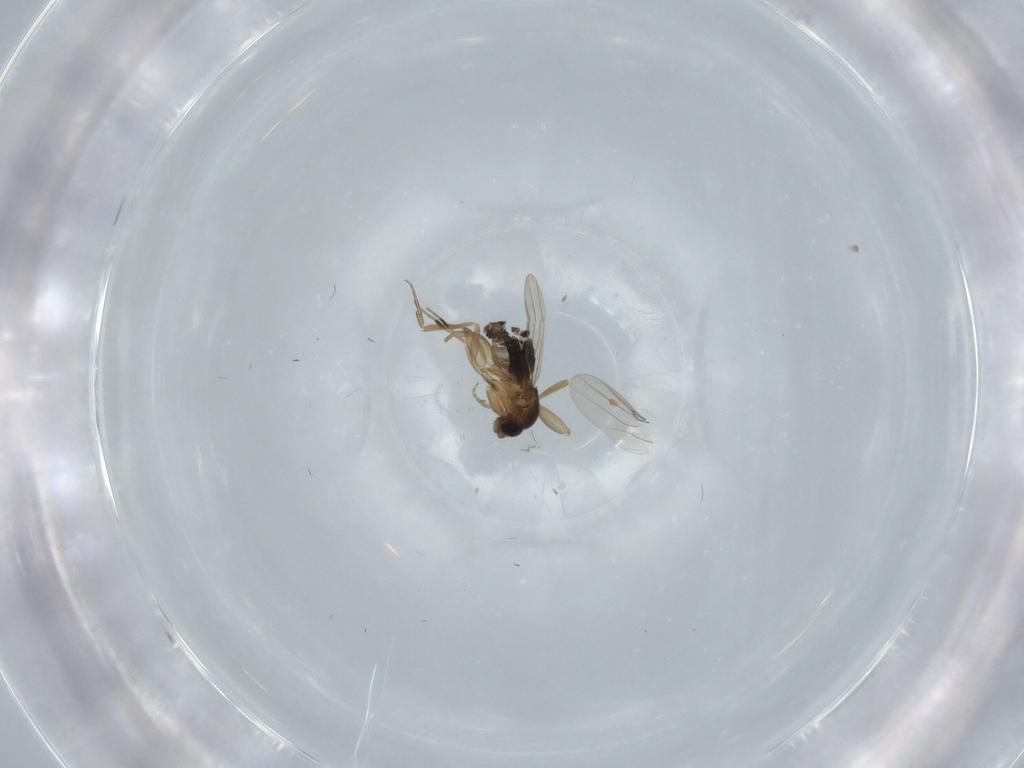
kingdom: Animalia
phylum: Arthropoda
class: Insecta
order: Diptera
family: Phoridae
